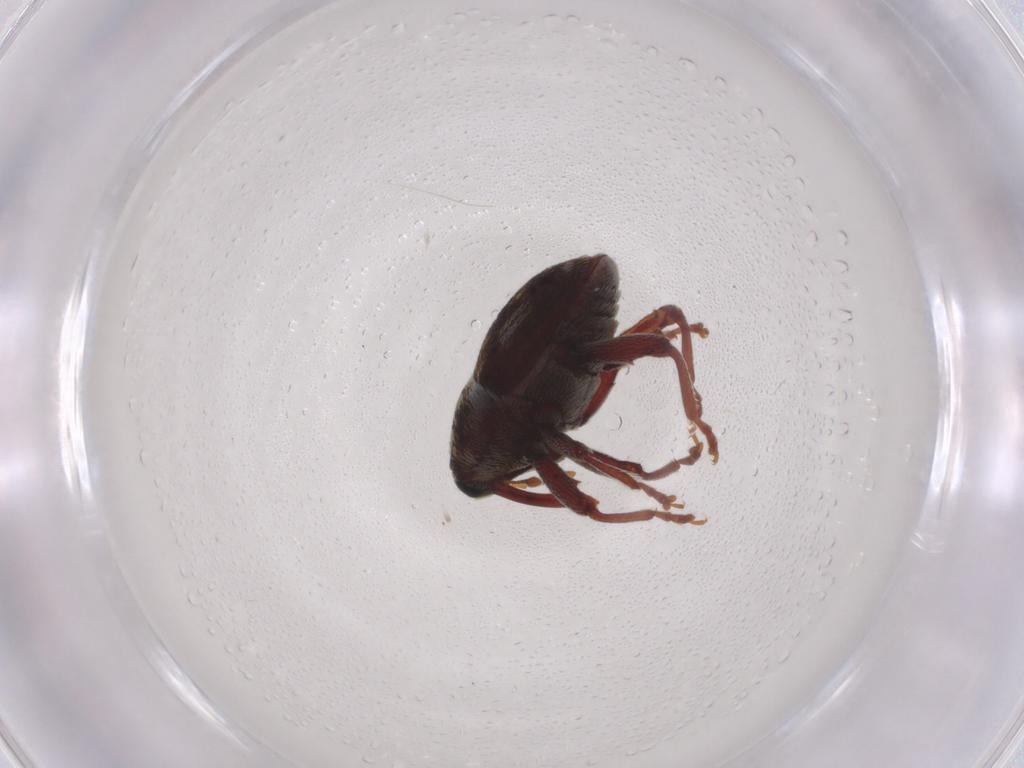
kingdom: Animalia
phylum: Arthropoda
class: Insecta
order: Coleoptera
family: Curculionidae
